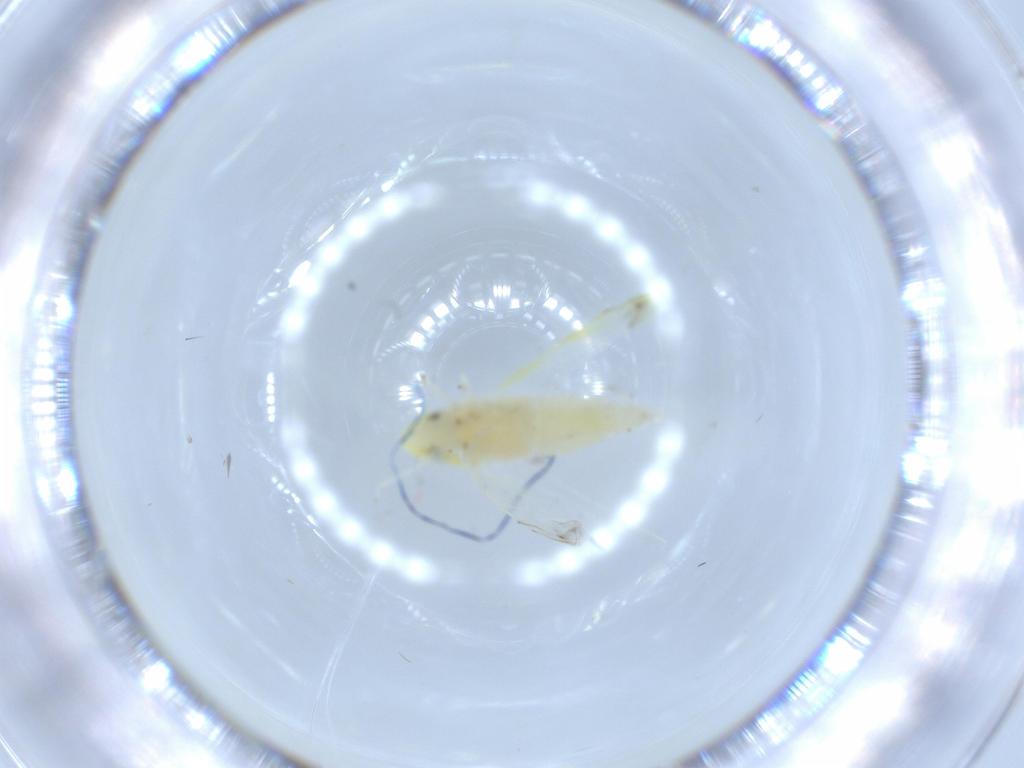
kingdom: Animalia
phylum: Arthropoda
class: Insecta
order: Hemiptera
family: Cicadellidae
